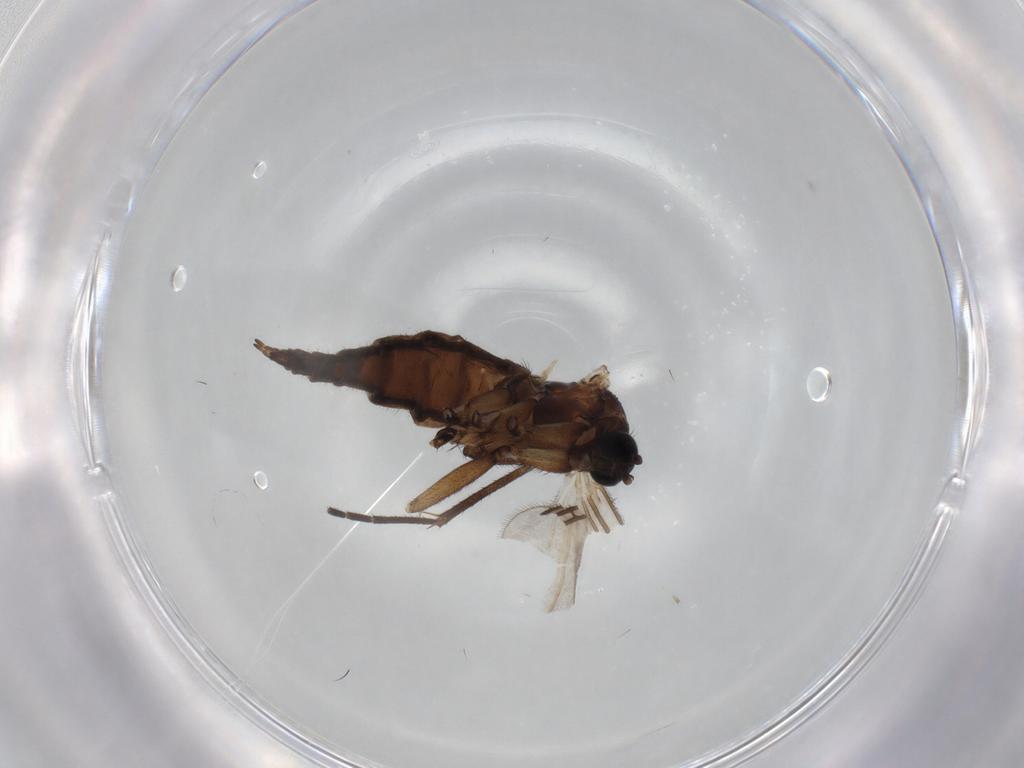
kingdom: Animalia
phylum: Arthropoda
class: Insecta
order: Diptera
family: Sciaridae
